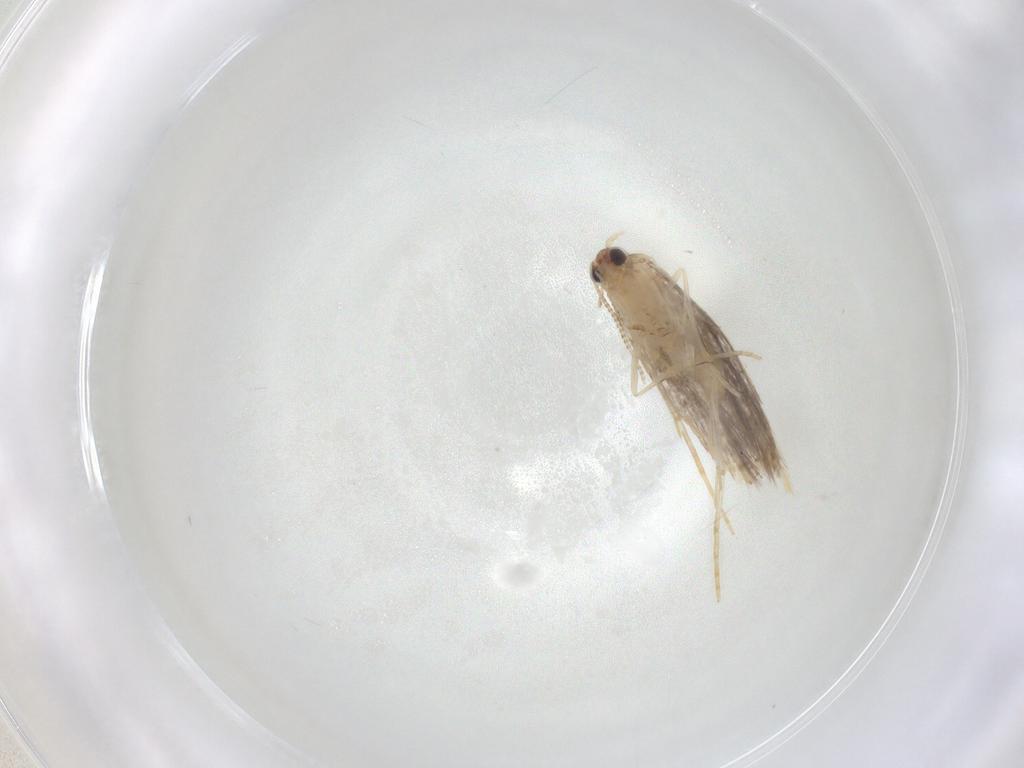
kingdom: Animalia
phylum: Arthropoda
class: Insecta
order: Lepidoptera
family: Tineidae
